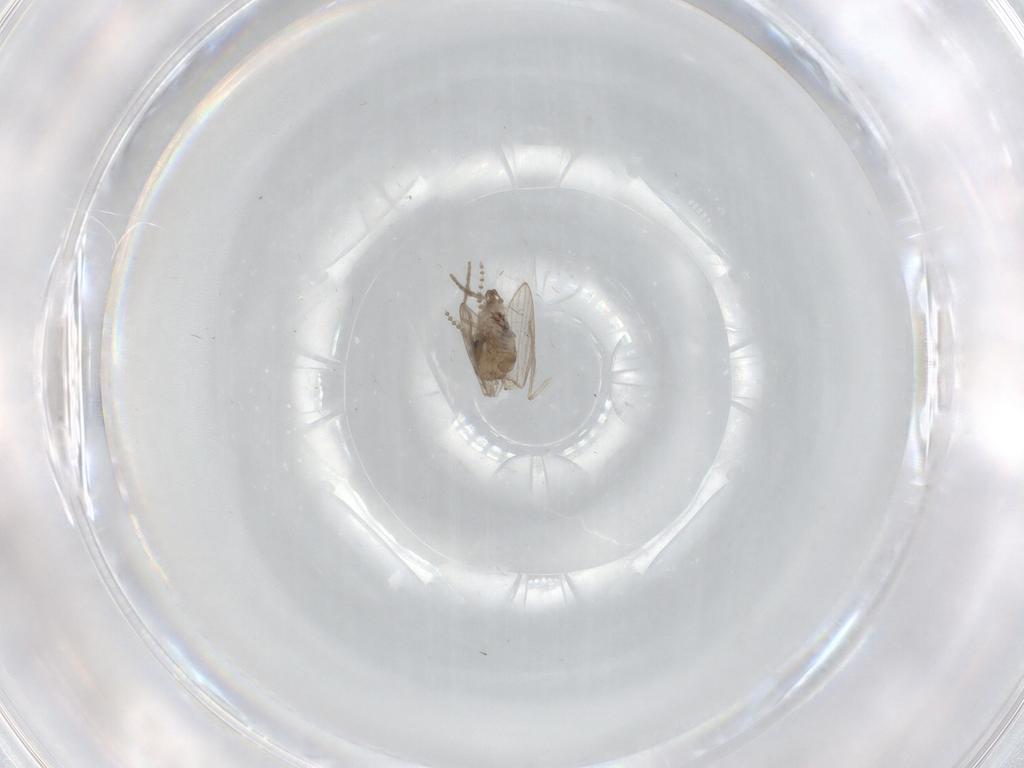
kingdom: Animalia
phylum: Arthropoda
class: Insecta
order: Diptera
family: Psychodidae
